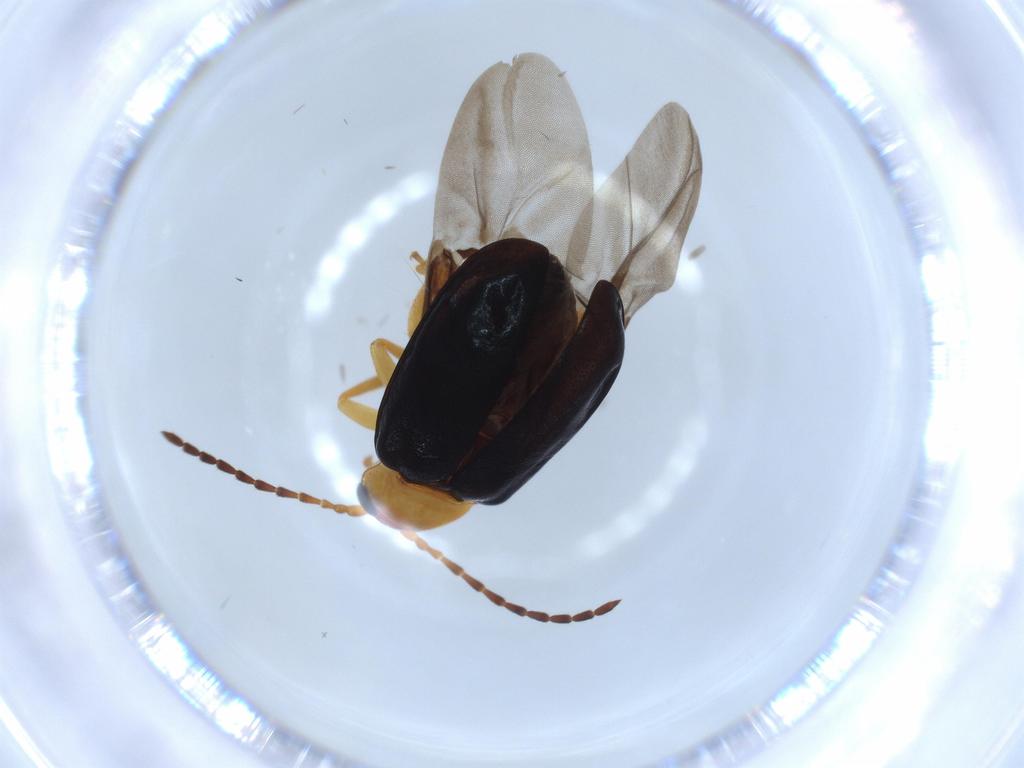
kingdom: Animalia
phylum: Arthropoda
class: Insecta
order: Coleoptera
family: Chrysomelidae
